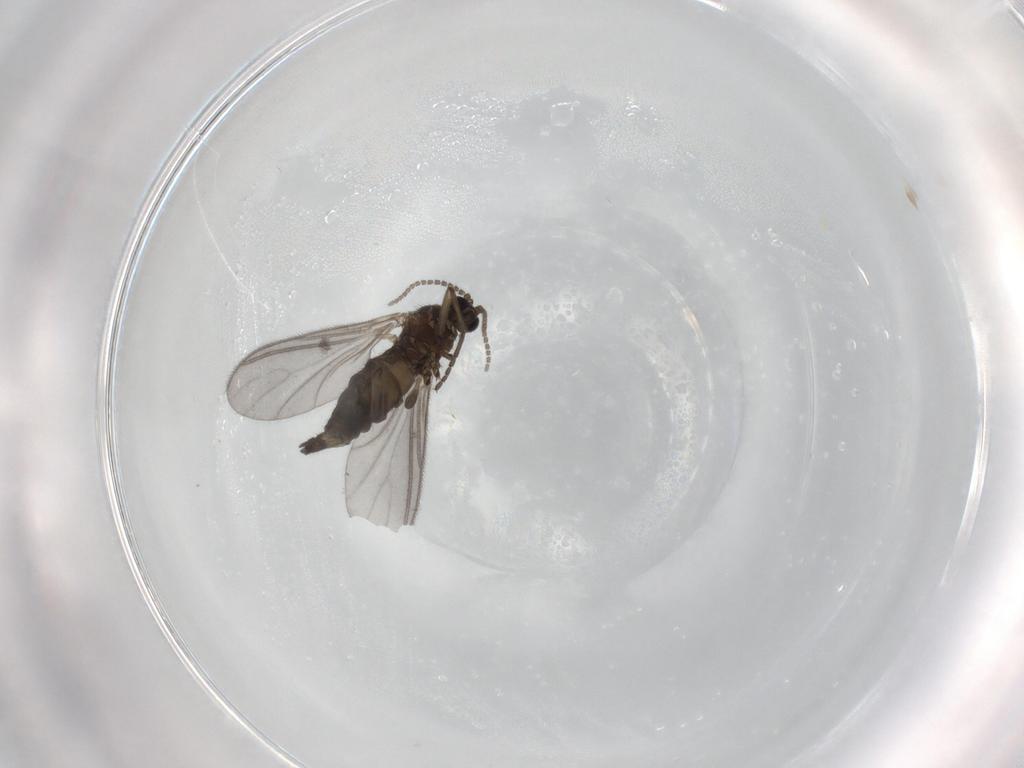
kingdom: Animalia
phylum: Arthropoda
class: Insecta
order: Diptera
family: Sciaridae
